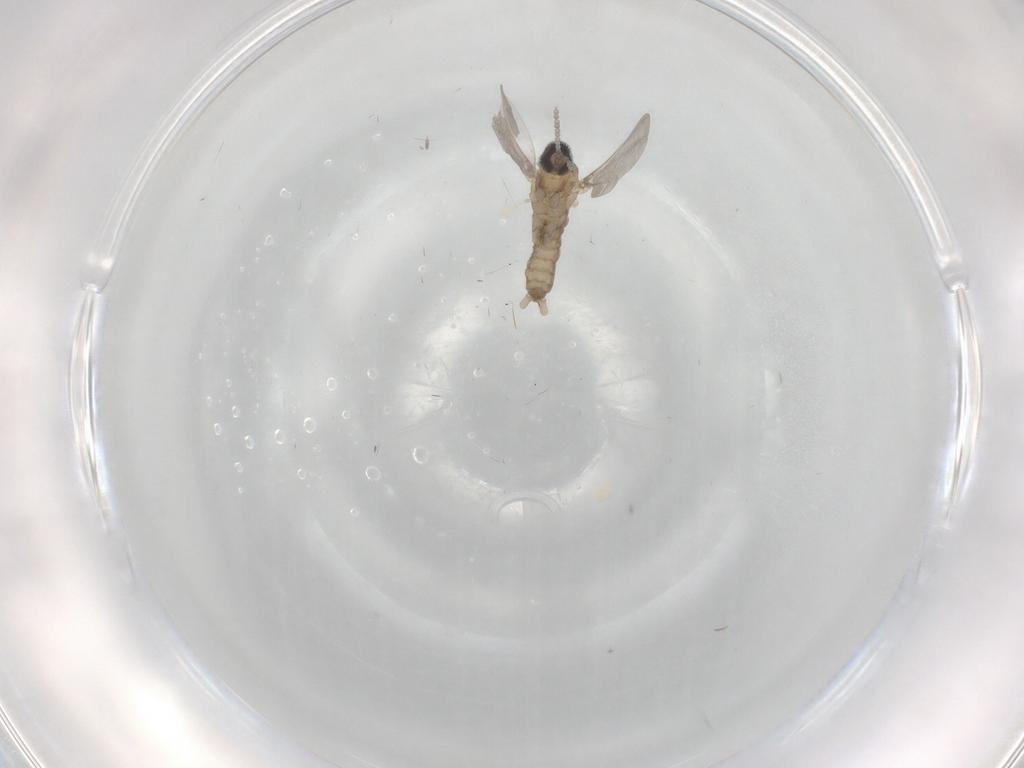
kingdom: Animalia
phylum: Arthropoda
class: Insecta
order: Diptera
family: Cecidomyiidae
